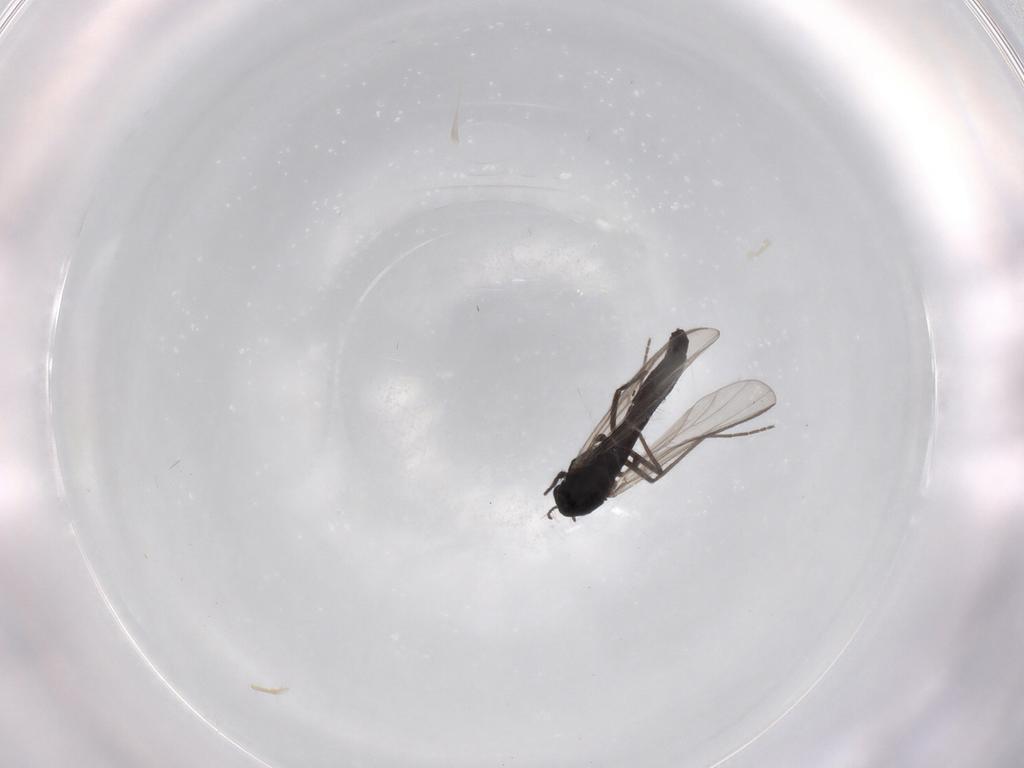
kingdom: Animalia
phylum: Arthropoda
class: Insecta
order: Diptera
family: Chironomidae
